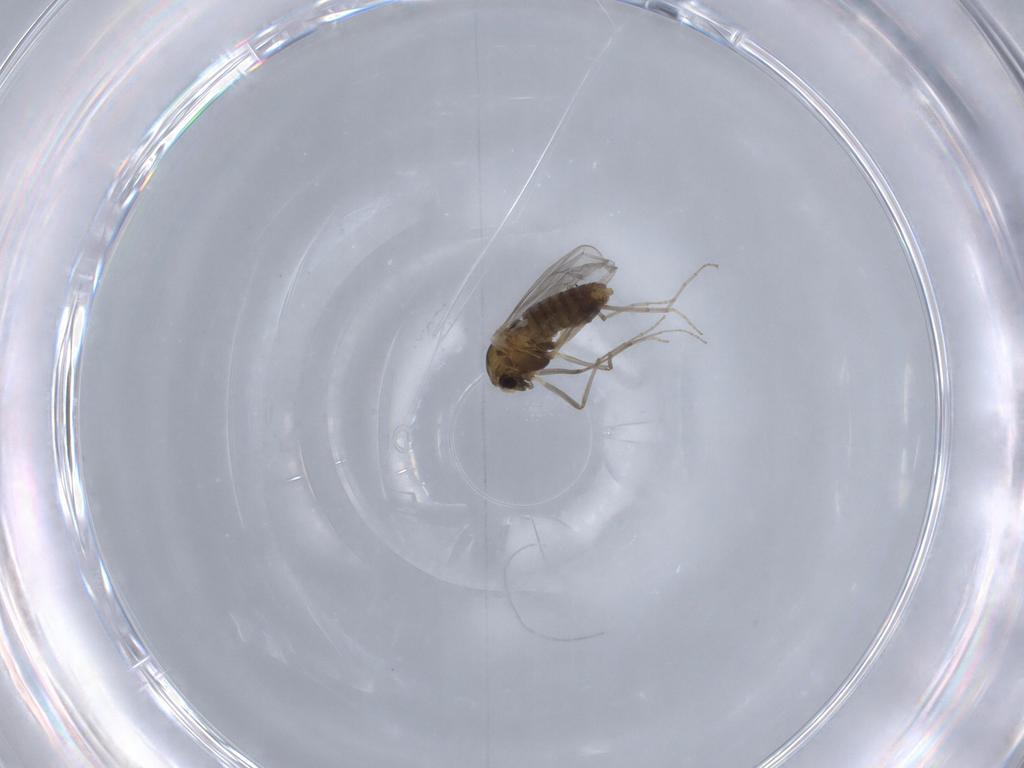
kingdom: Animalia
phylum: Arthropoda
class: Insecta
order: Diptera
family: Chironomidae
